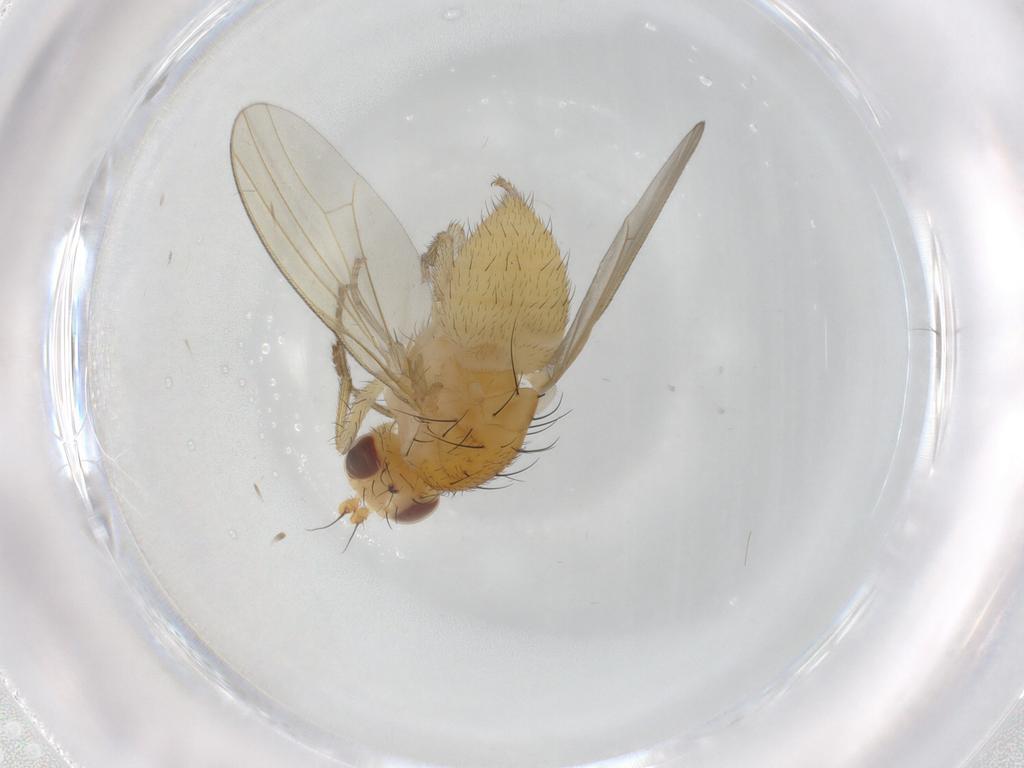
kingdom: Animalia
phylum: Arthropoda
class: Insecta
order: Diptera
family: Lauxaniidae
